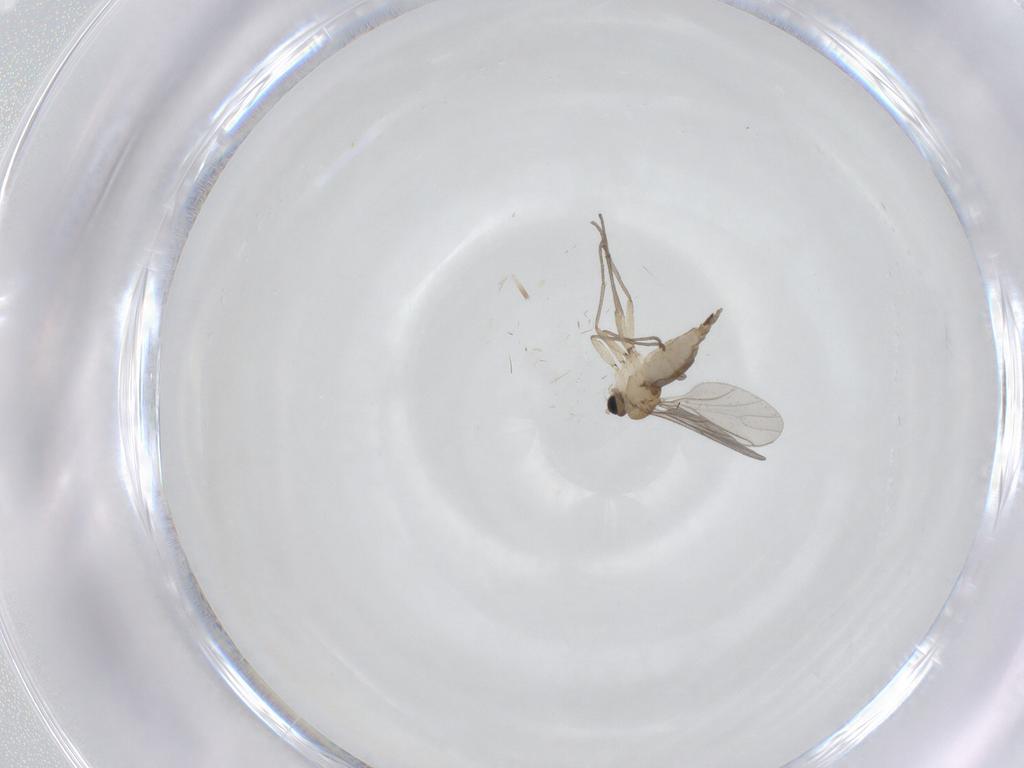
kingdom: Animalia
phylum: Arthropoda
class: Insecta
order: Diptera
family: Sciaridae
